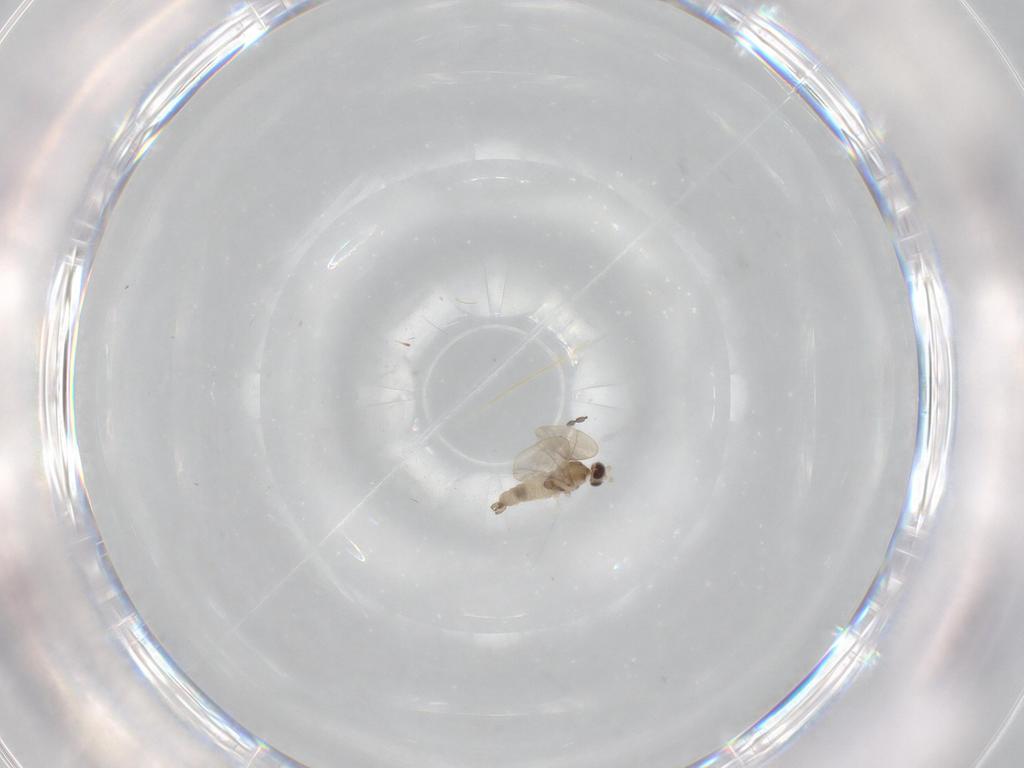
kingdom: Animalia
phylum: Arthropoda
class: Insecta
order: Diptera
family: Cecidomyiidae
